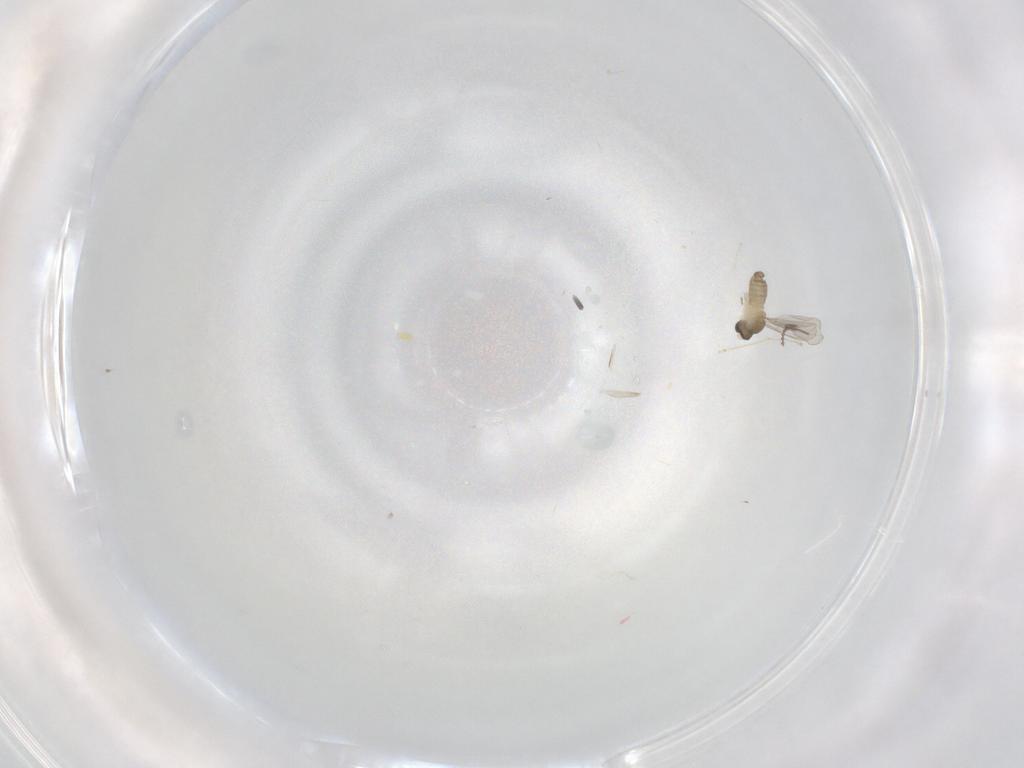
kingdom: Animalia
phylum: Arthropoda
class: Insecta
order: Diptera
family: Cecidomyiidae
